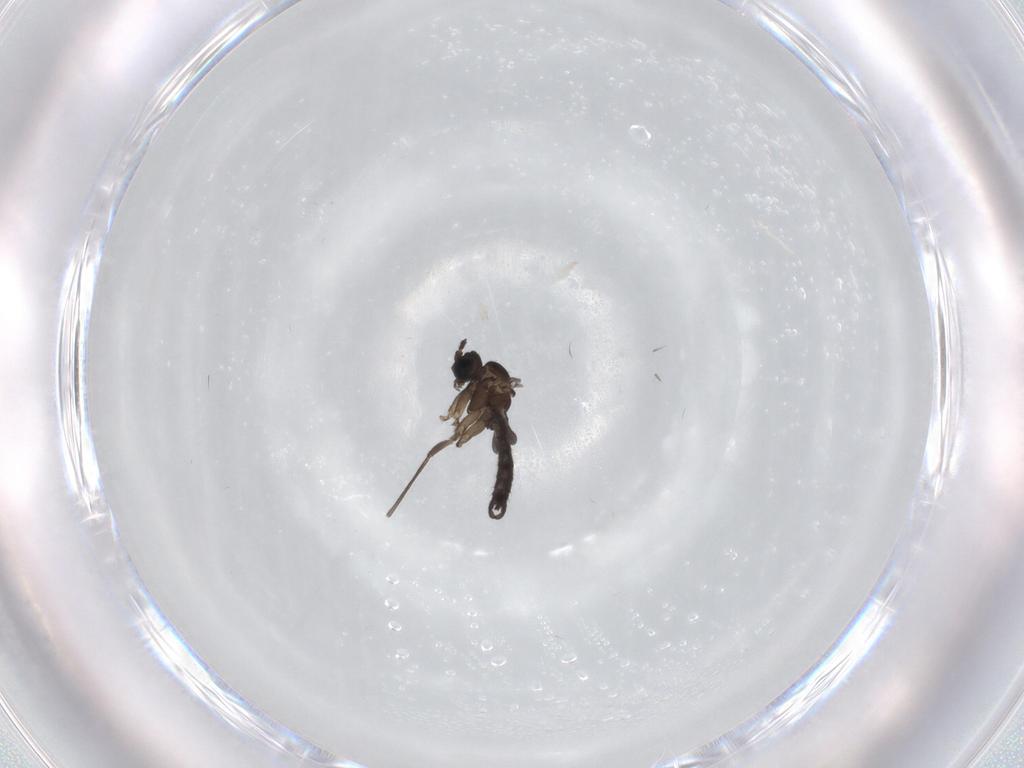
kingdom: Animalia
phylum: Arthropoda
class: Insecta
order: Diptera
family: Sciaridae
